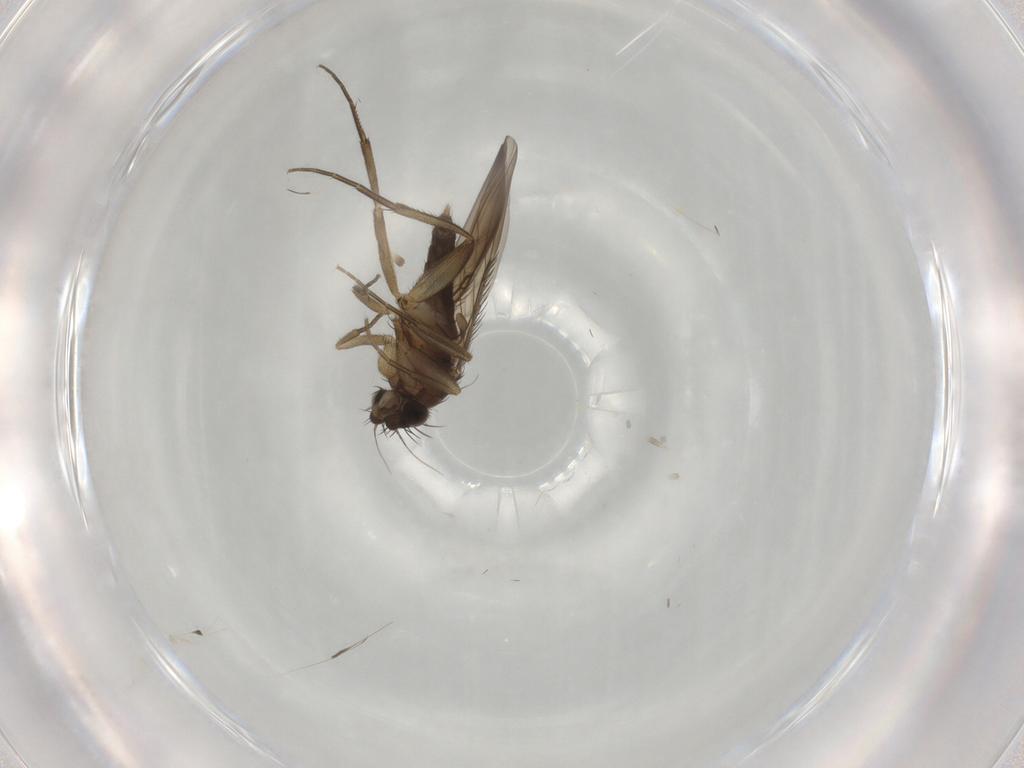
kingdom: Animalia
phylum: Arthropoda
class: Insecta
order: Diptera
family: Phoridae
